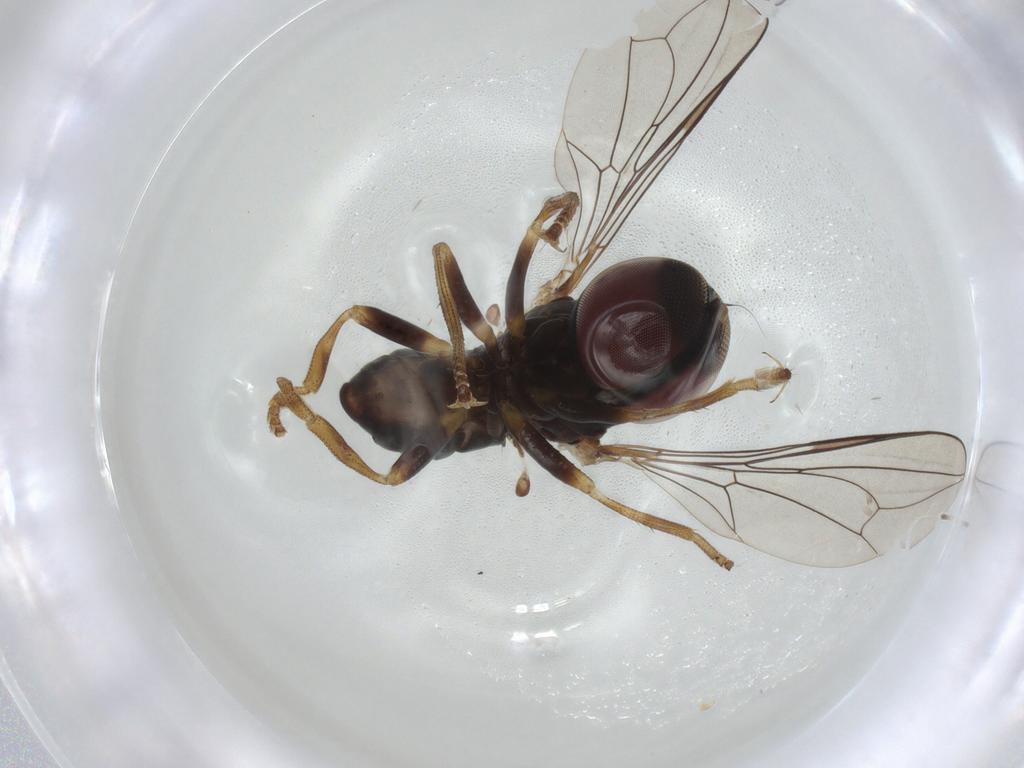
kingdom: Animalia
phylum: Arthropoda
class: Insecta
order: Diptera
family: Pipunculidae
